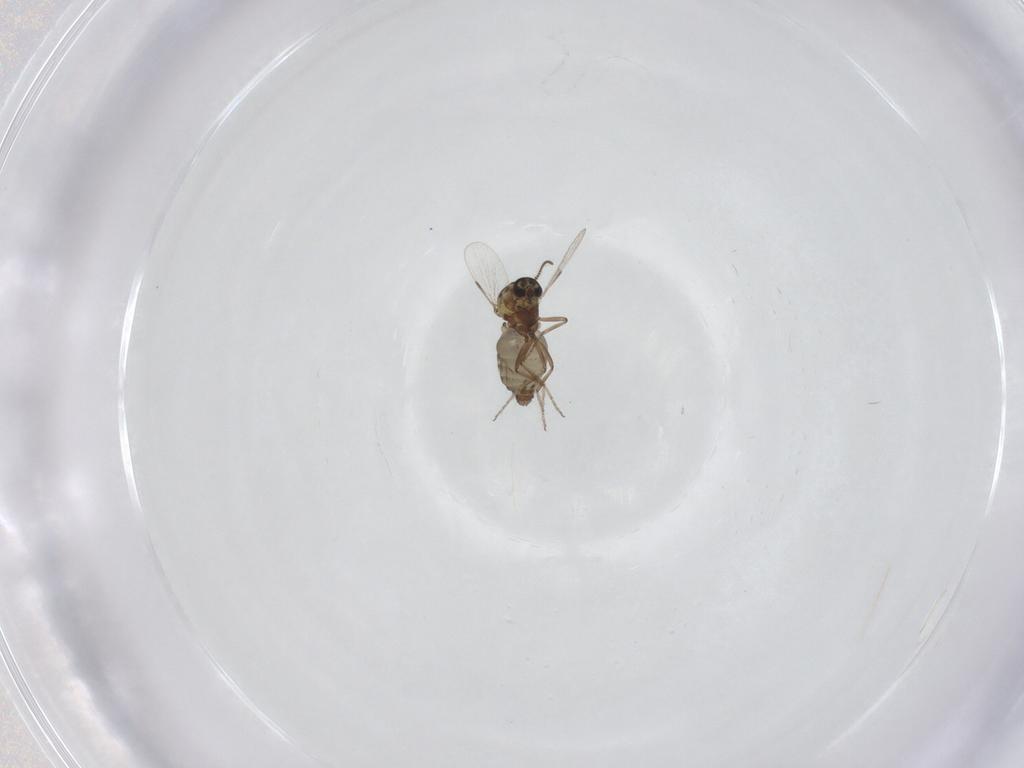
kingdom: Animalia
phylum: Arthropoda
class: Insecta
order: Diptera
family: Ceratopogonidae
